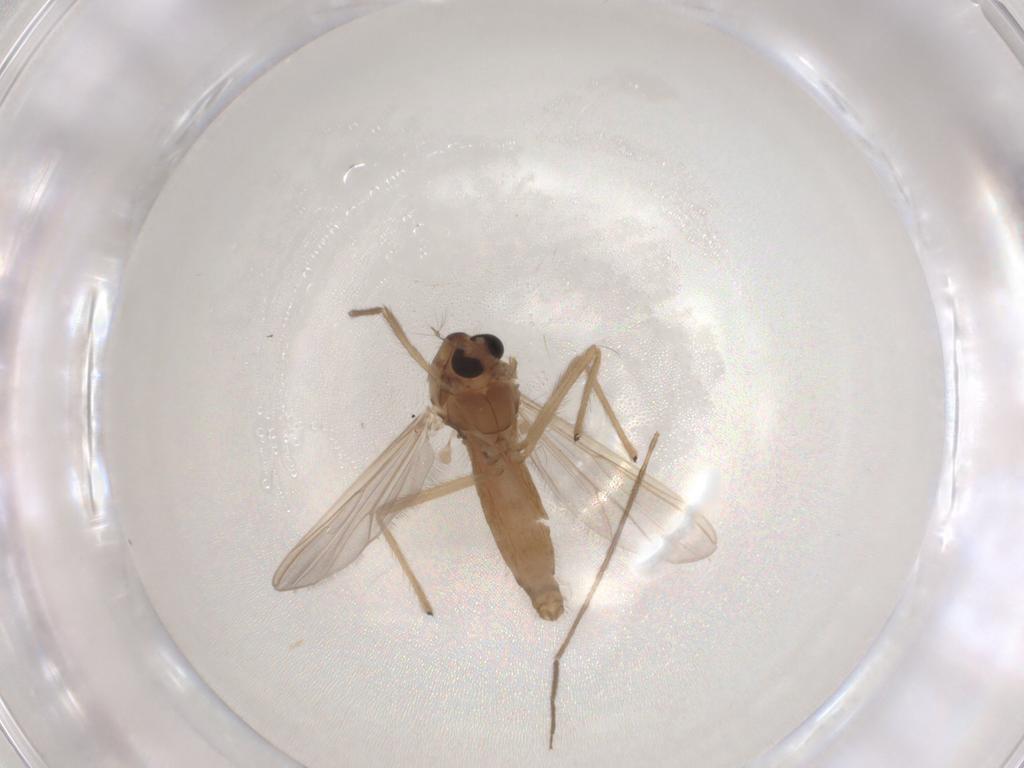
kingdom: Animalia
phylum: Arthropoda
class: Insecta
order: Diptera
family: Chironomidae
